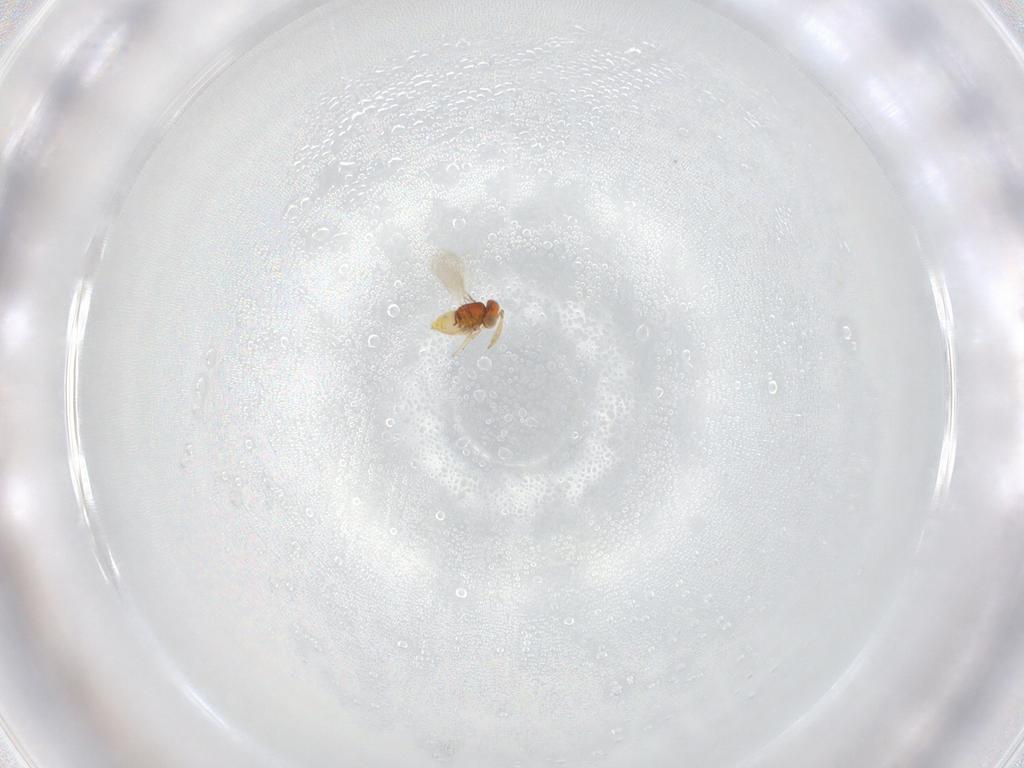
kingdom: Animalia
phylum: Arthropoda
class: Insecta
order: Hymenoptera
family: Aphelinidae
